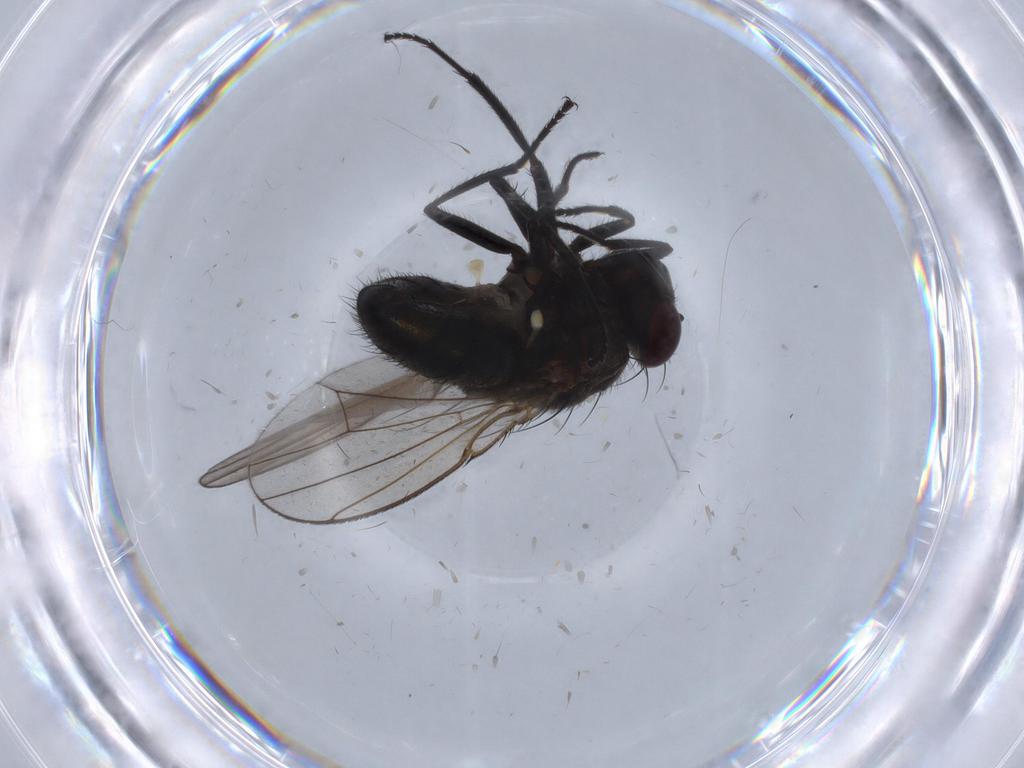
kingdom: Animalia
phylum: Arthropoda
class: Insecta
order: Diptera
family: Ephydridae
